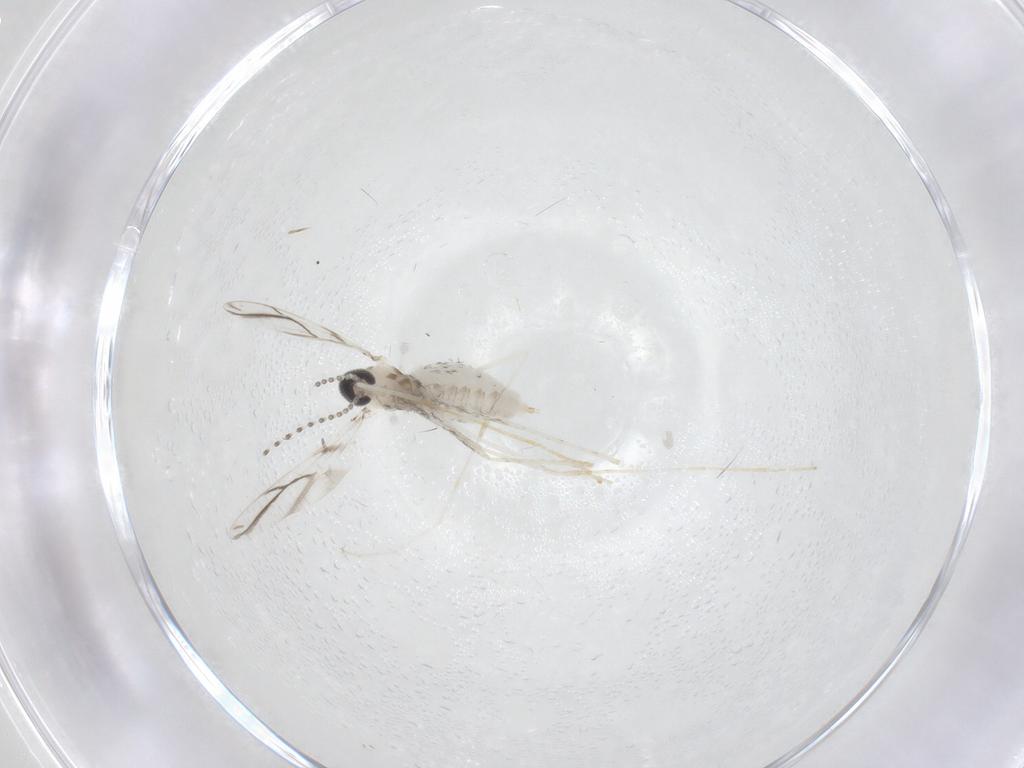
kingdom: Animalia
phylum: Arthropoda
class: Insecta
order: Diptera
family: Cecidomyiidae
